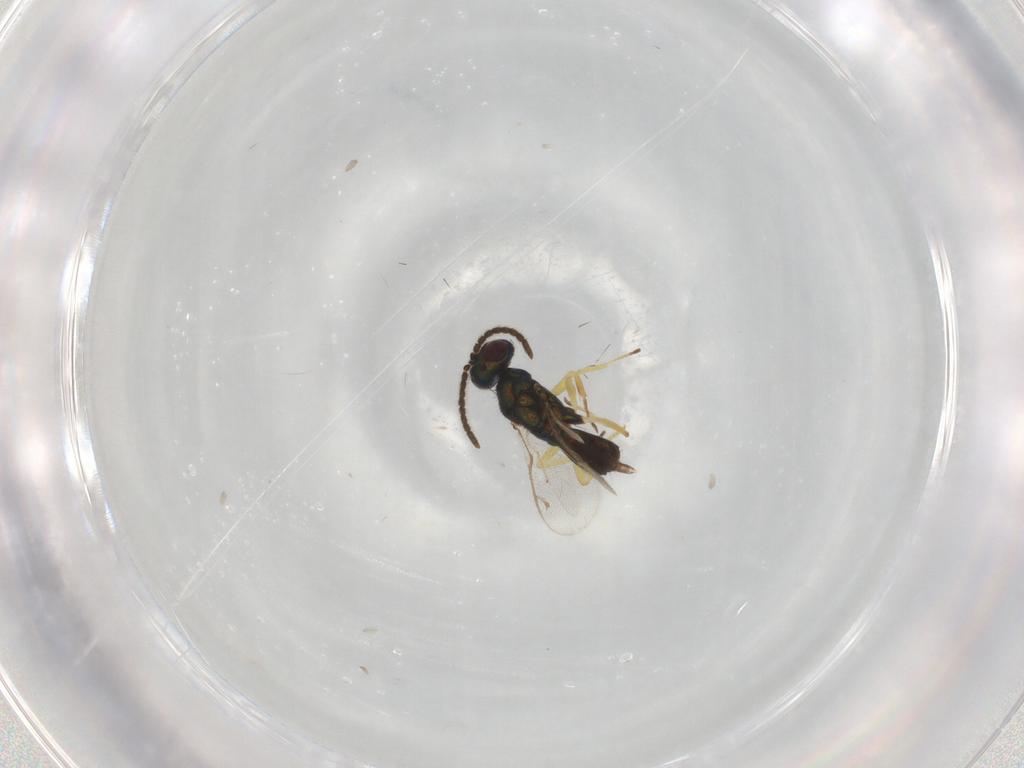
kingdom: Animalia
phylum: Arthropoda
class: Insecta
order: Hymenoptera
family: Eupelmidae
